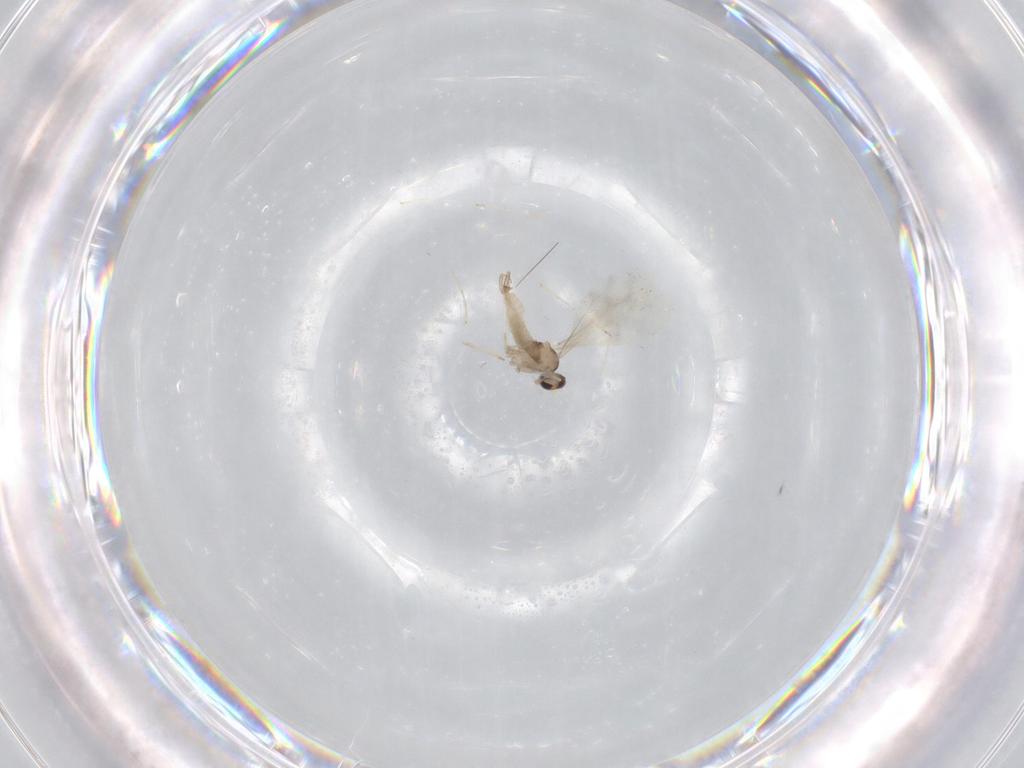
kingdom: Animalia
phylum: Arthropoda
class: Insecta
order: Diptera
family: Cecidomyiidae
